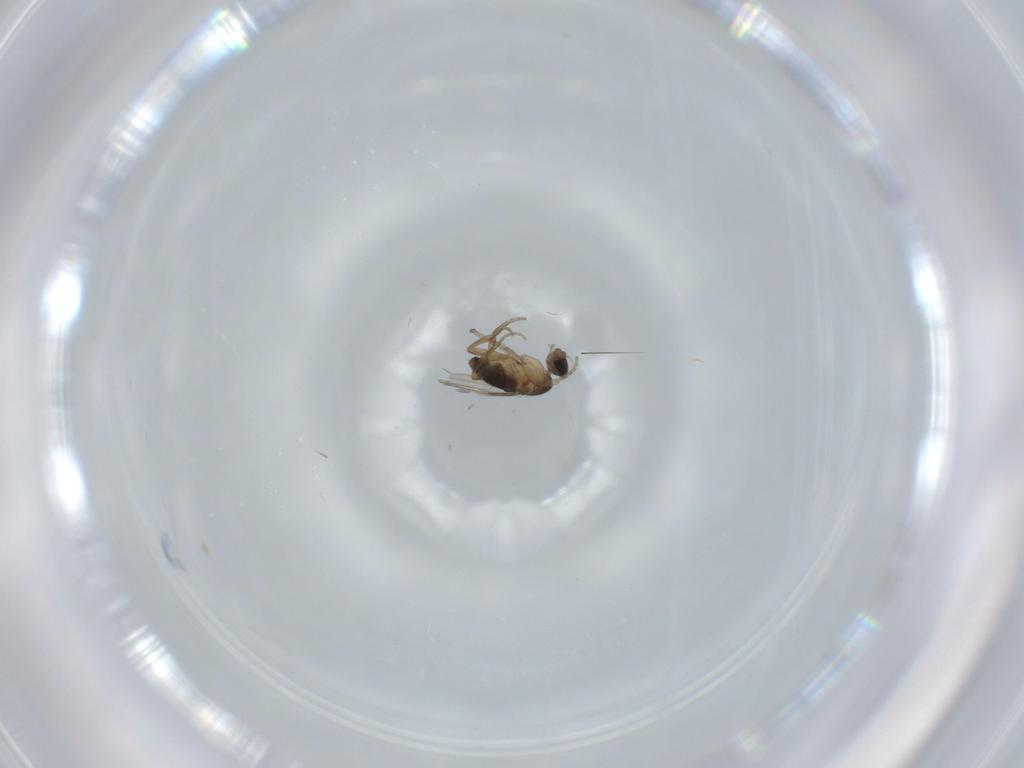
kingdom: Animalia
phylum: Arthropoda
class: Insecta
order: Diptera
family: Phoridae
